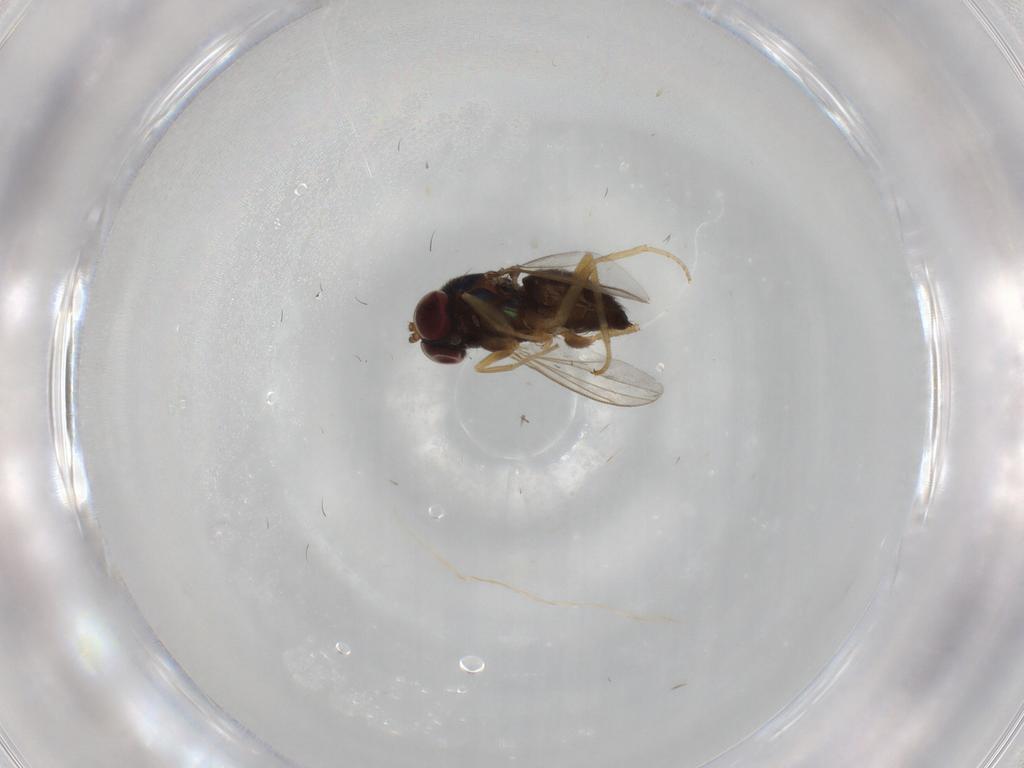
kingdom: Animalia
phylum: Arthropoda
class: Insecta
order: Diptera
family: Dolichopodidae
